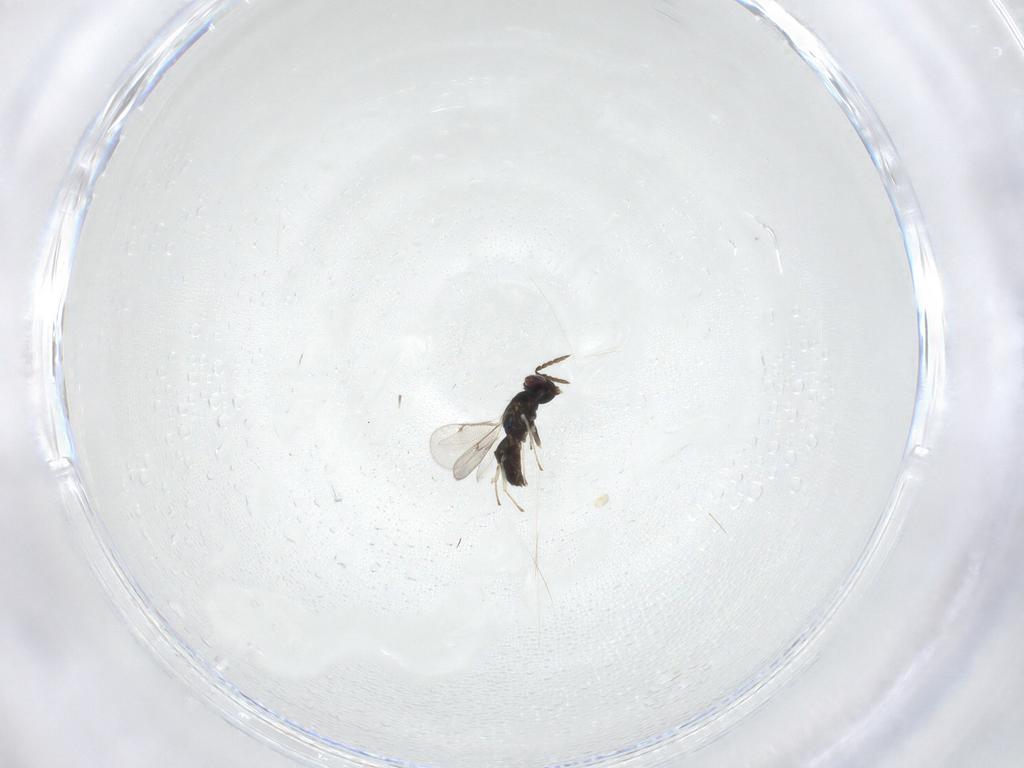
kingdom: Animalia
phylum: Arthropoda
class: Insecta
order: Hymenoptera
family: Eulophidae
